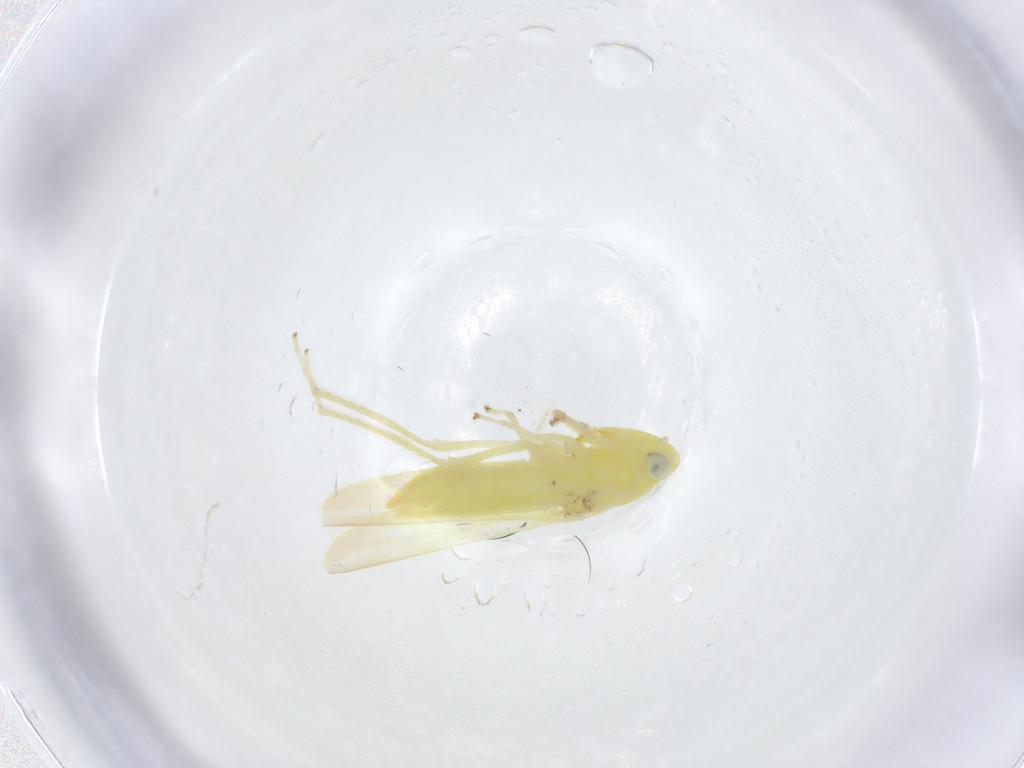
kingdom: Animalia
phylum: Arthropoda
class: Insecta
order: Hemiptera
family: Cicadellidae
